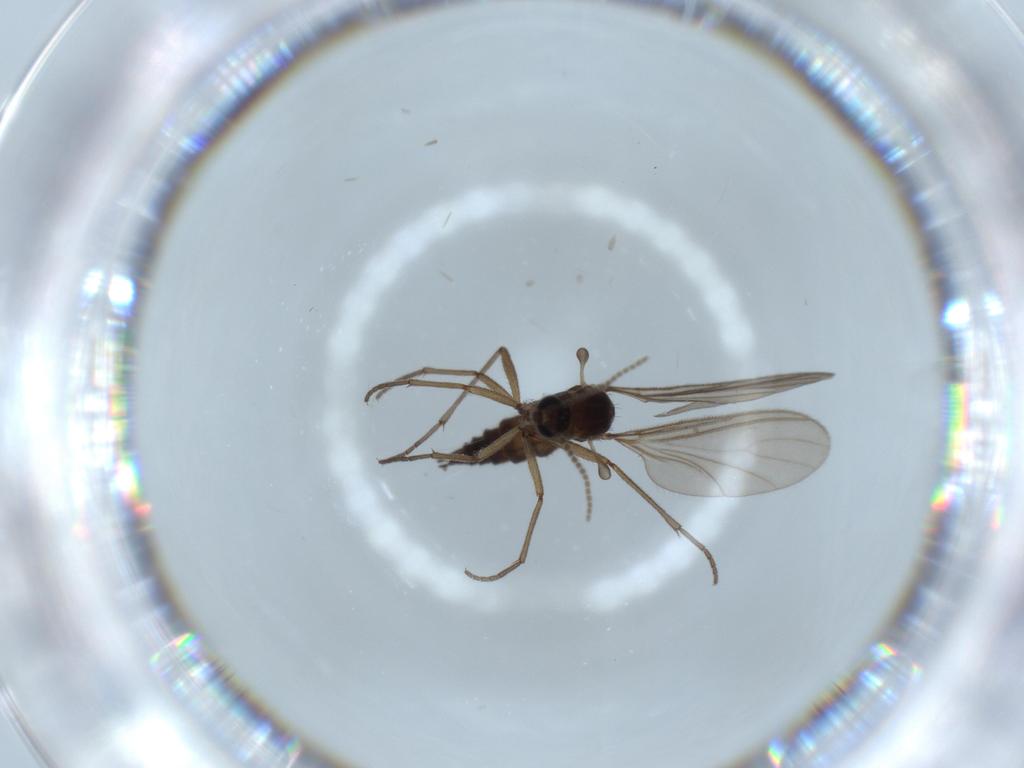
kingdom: Animalia
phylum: Arthropoda
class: Insecta
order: Diptera
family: Sciaridae
